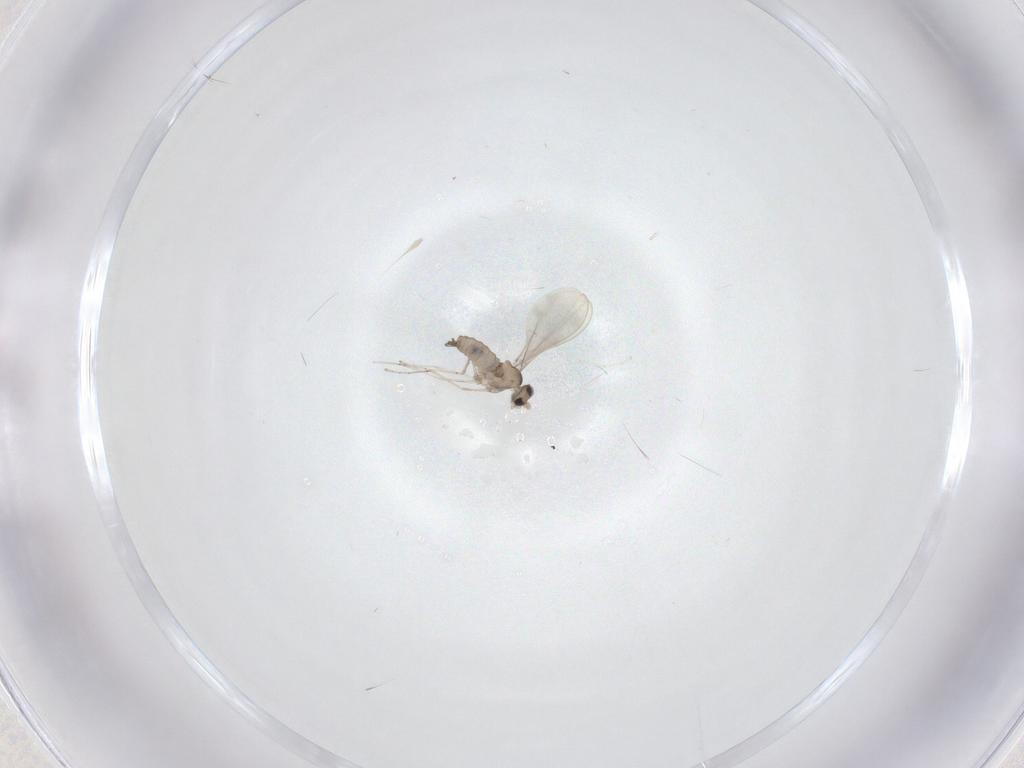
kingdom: Animalia
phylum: Arthropoda
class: Insecta
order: Diptera
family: Cecidomyiidae
